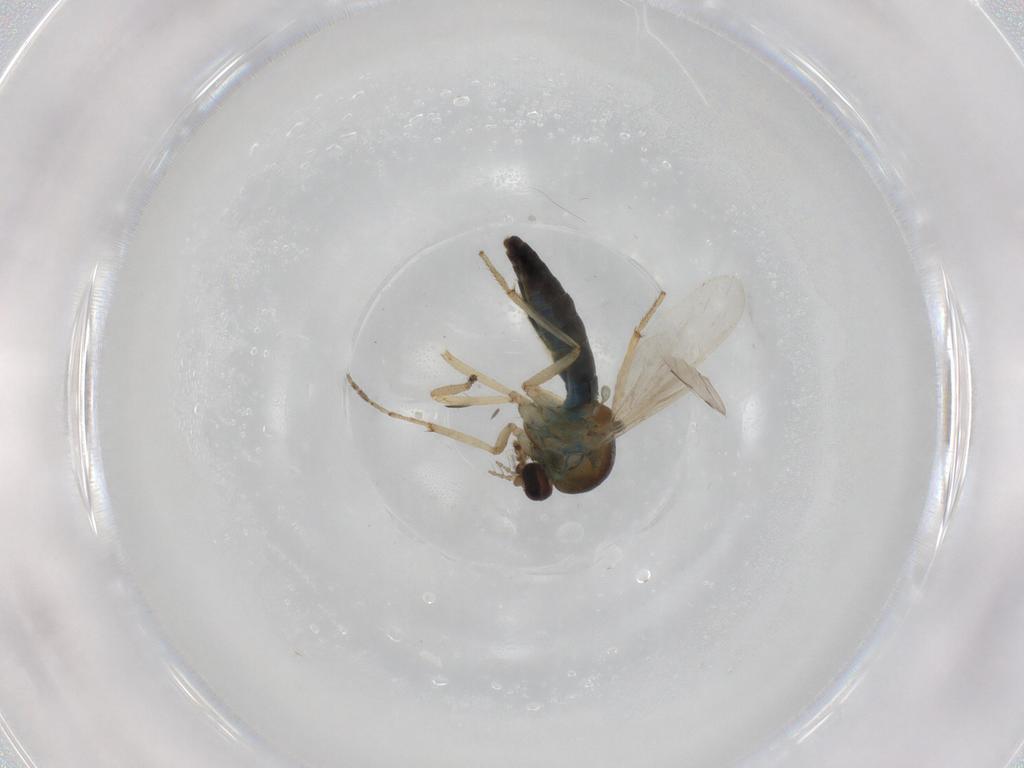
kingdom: Animalia
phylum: Arthropoda
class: Insecta
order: Diptera
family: Ceratopogonidae
